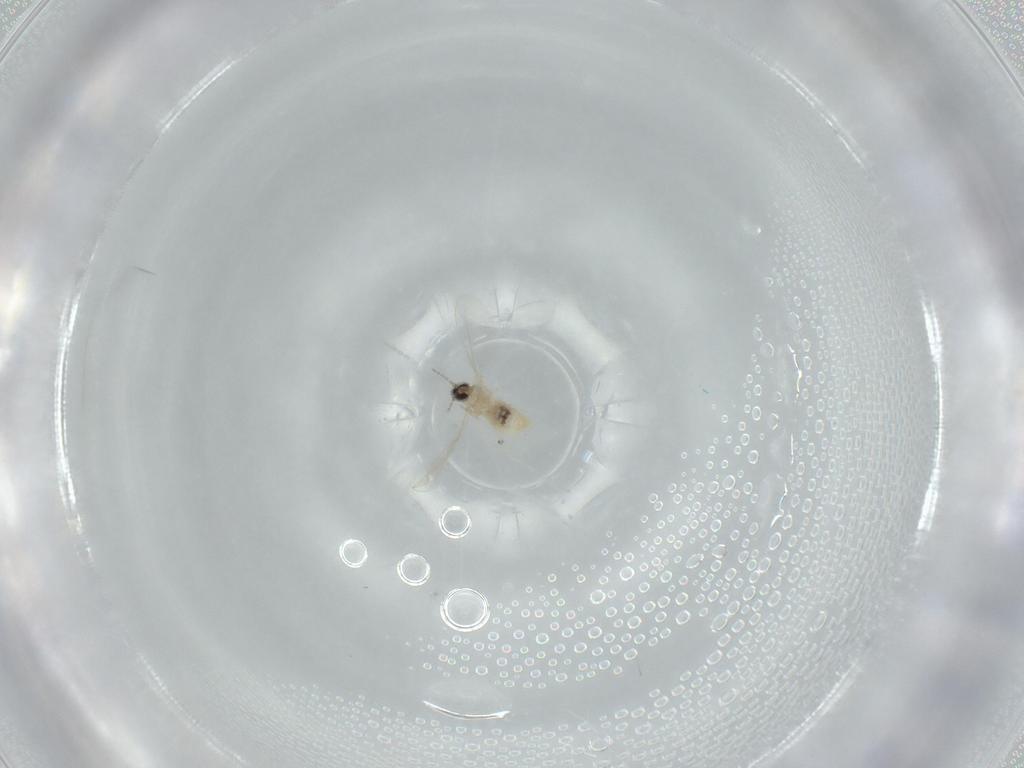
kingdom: Animalia
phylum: Arthropoda
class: Insecta
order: Diptera
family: Cecidomyiidae
